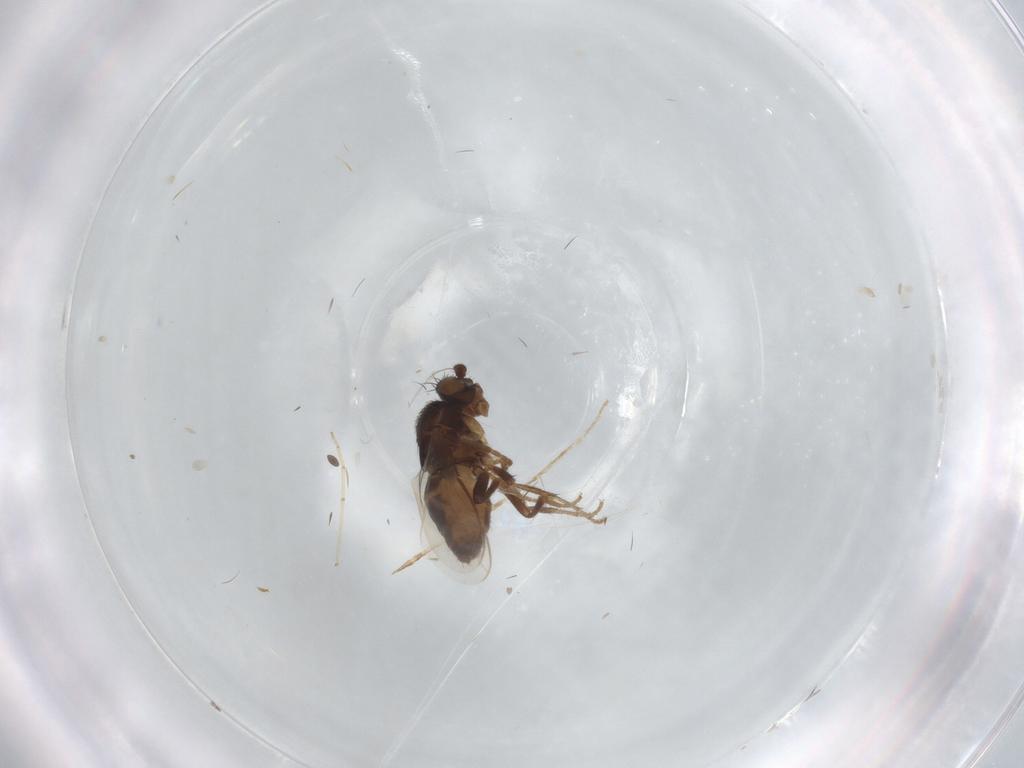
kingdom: Animalia
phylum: Arthropoda
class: Insecta
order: Diptera
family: Sphaeroceridae
